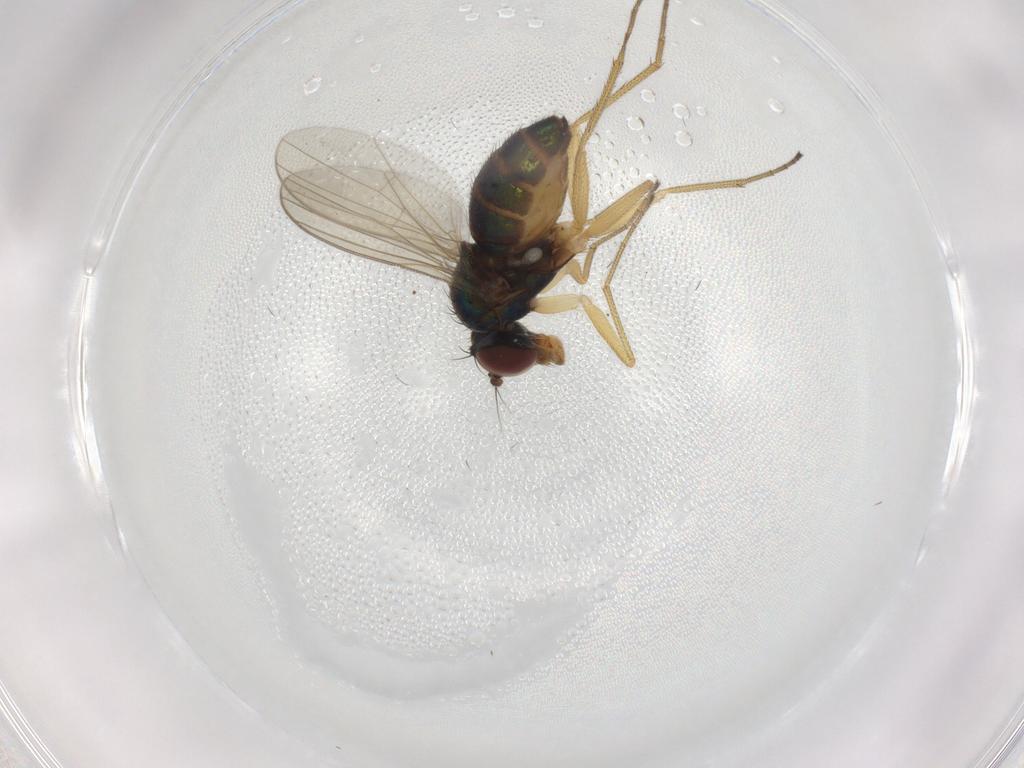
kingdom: Animalia
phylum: Arthropoda
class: Insecta
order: Diptera
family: Dolichopodidae
